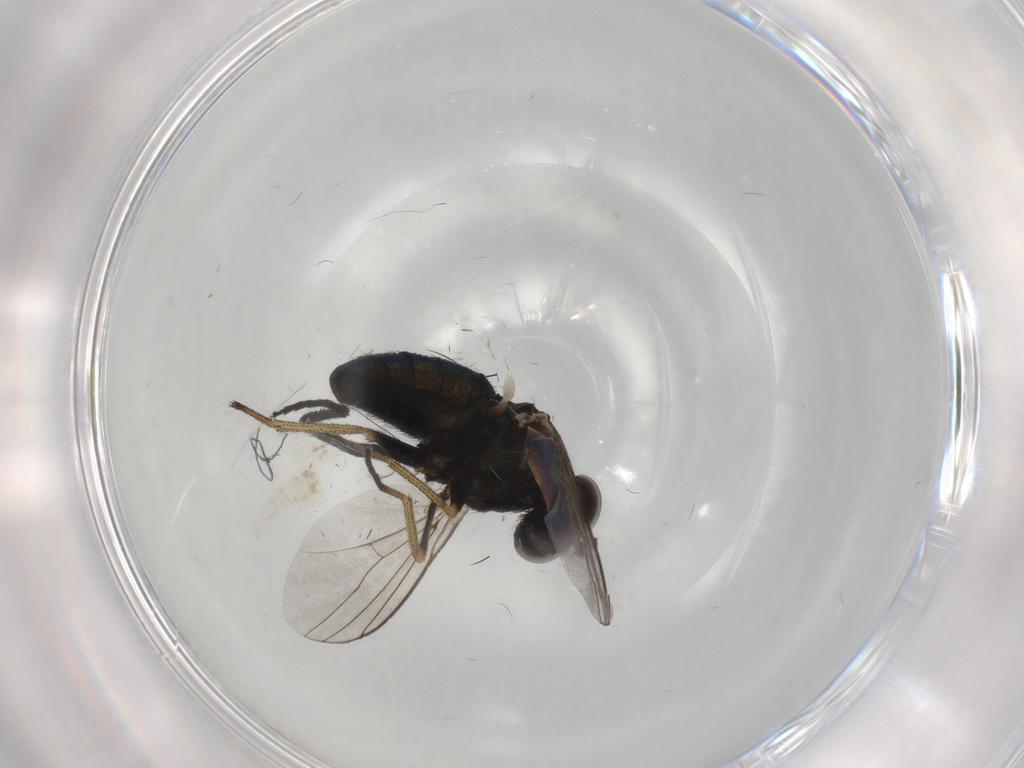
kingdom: Animalia
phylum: Arthropoda
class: Insecta
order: Diptera
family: Dolichopodidae
